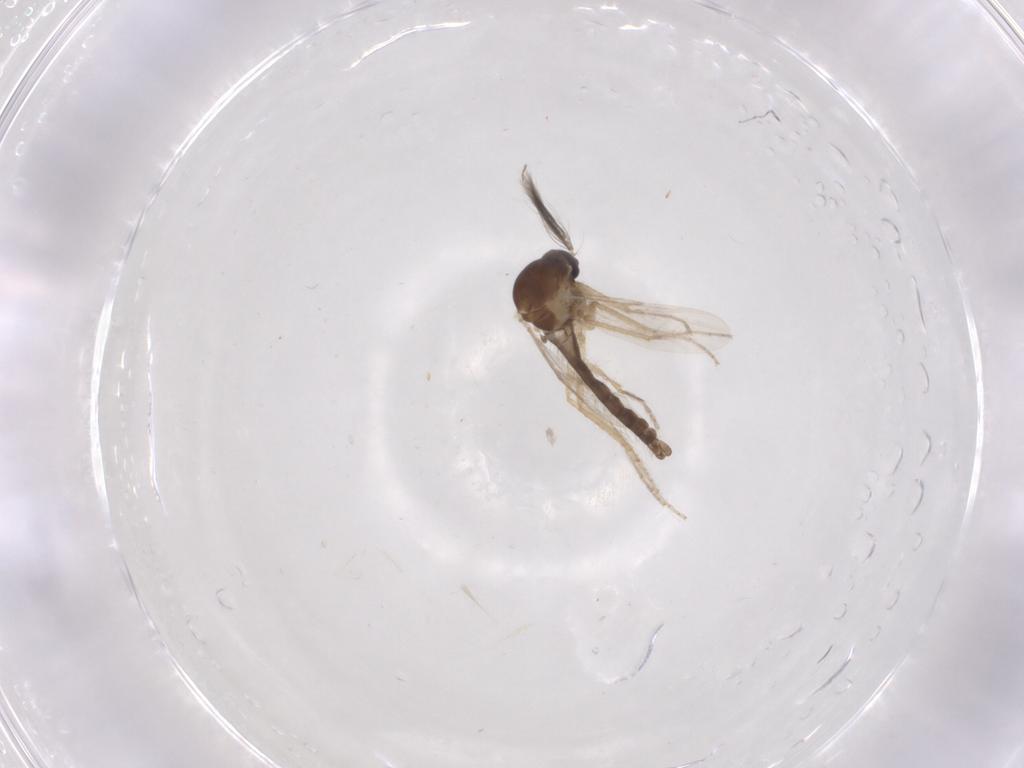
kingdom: Animalia
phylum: Arthropoda
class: Insecta
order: Diptera
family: Ceratopogonidae
